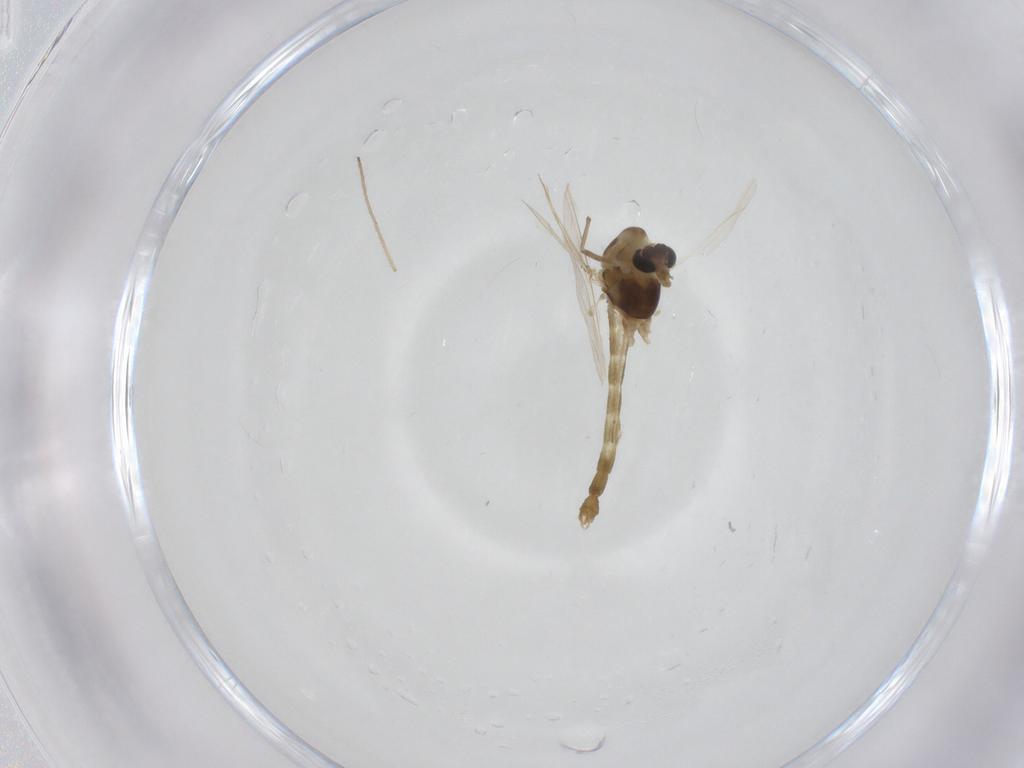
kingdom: Animalia
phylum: Arthropoda
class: Insecta
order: Diptera
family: Chironomidae
